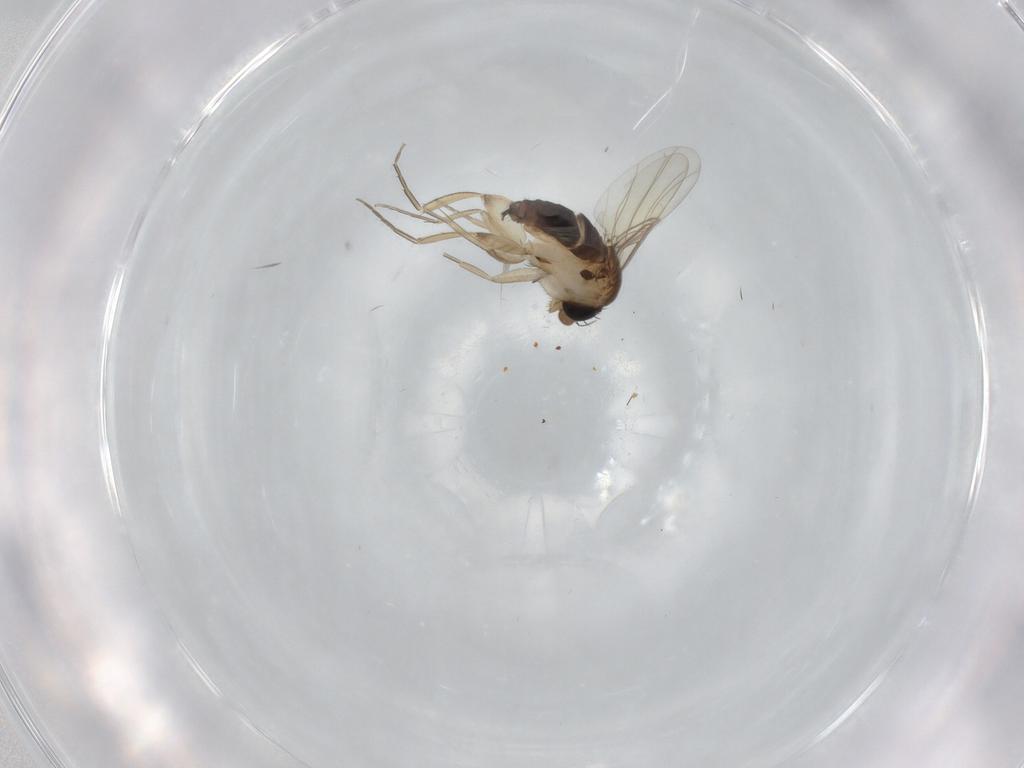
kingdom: Animalia
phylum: Arthropoda
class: Insecta
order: Diptera
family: Phoridae
